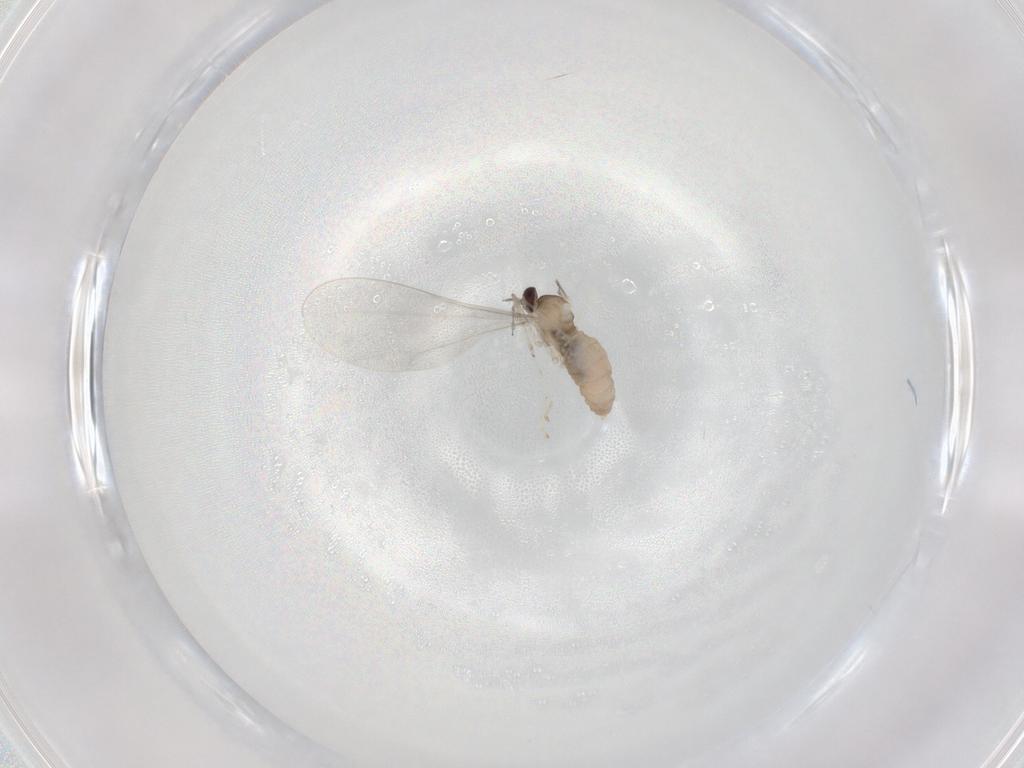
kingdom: Animalia
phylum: Arthropoda
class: Insecta
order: Diptera
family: Cecidomyiidae
